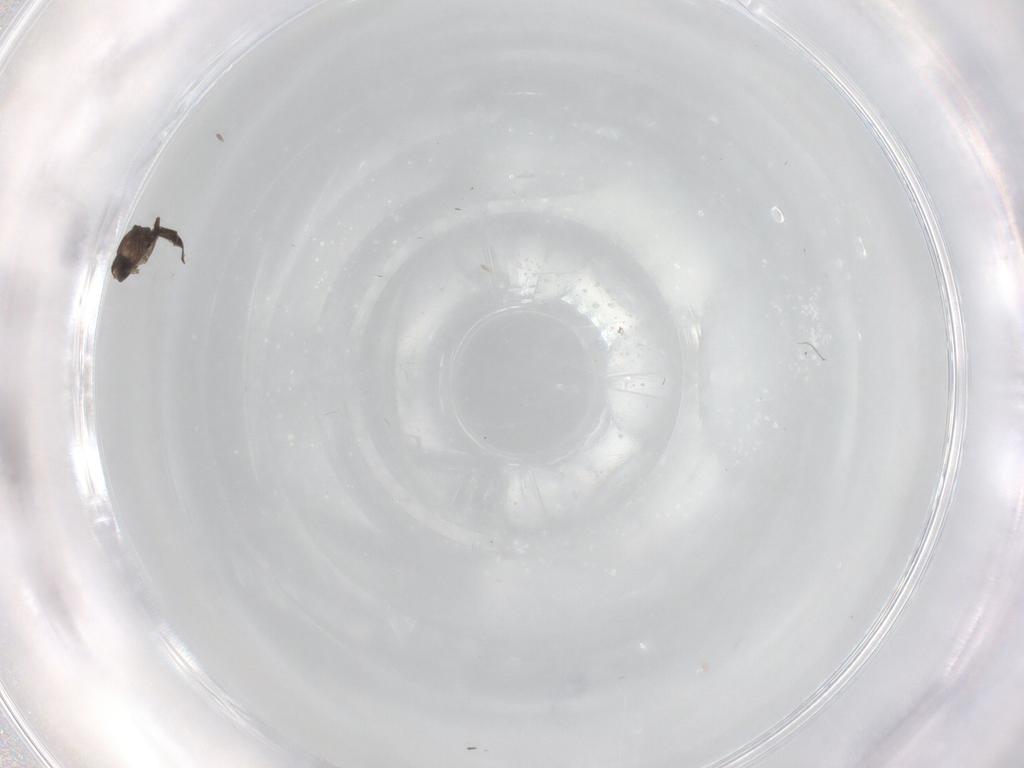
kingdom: Animalia
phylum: Arthropoda
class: Insecta
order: Diptera
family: Phoridae
